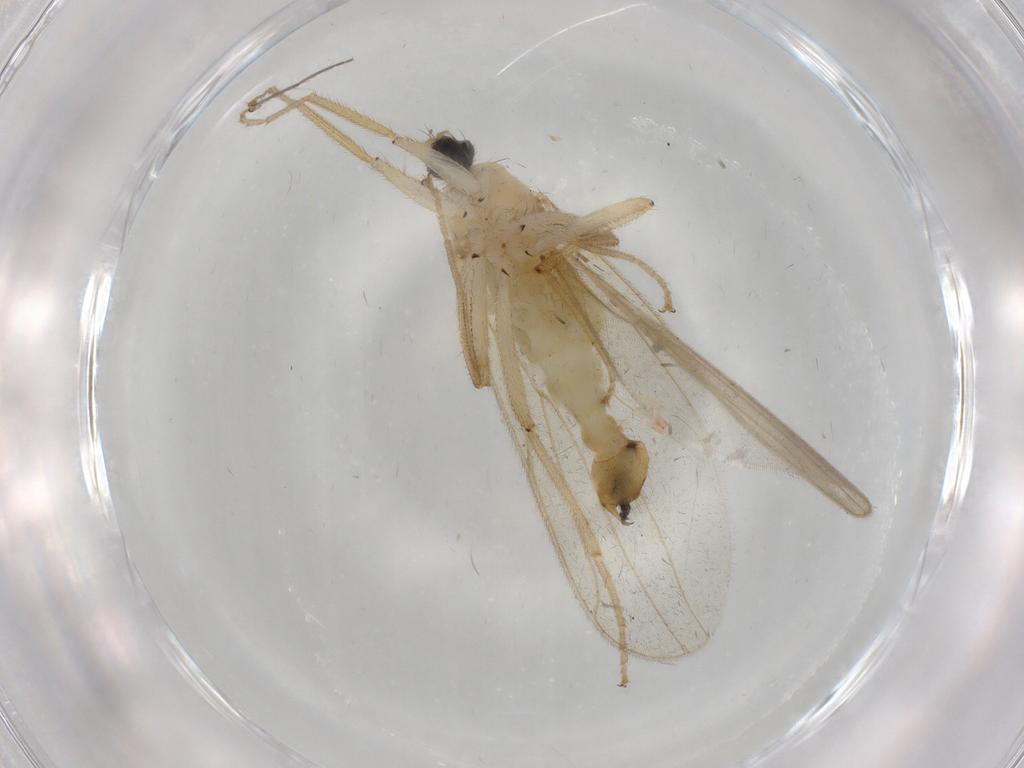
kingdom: Animalia
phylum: Arthropoda
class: Insecta
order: Diptera
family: Hybotidae
